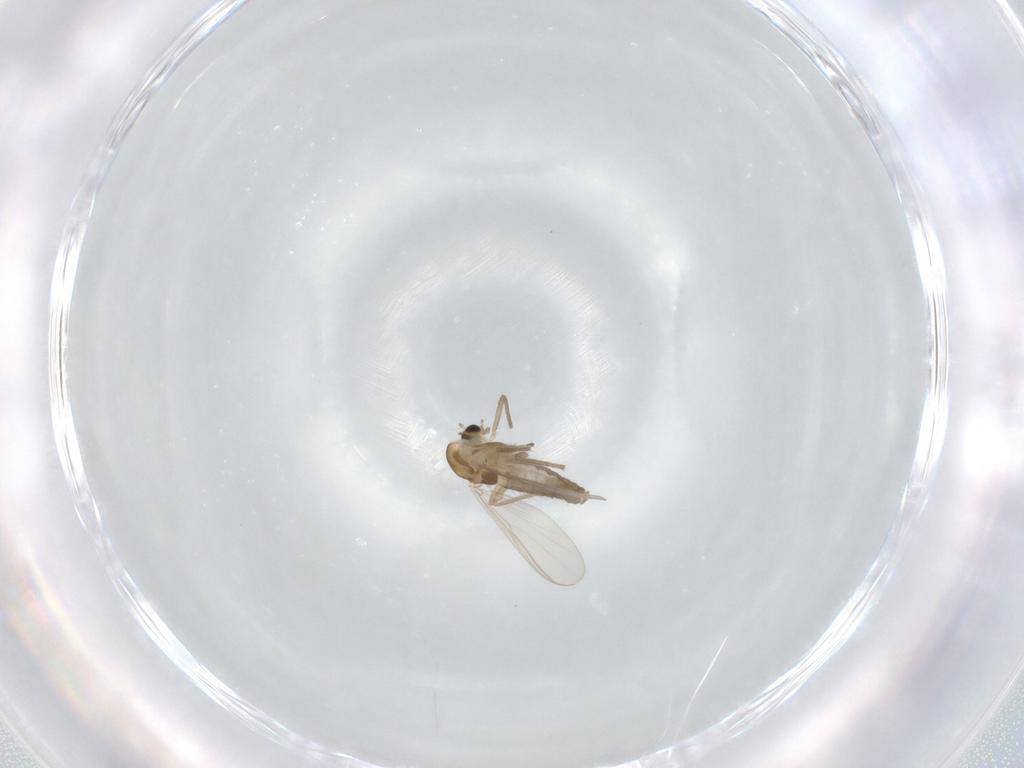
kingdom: Animalia
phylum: Arthropoda
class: Insecta
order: Diptera
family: Chironomidae
